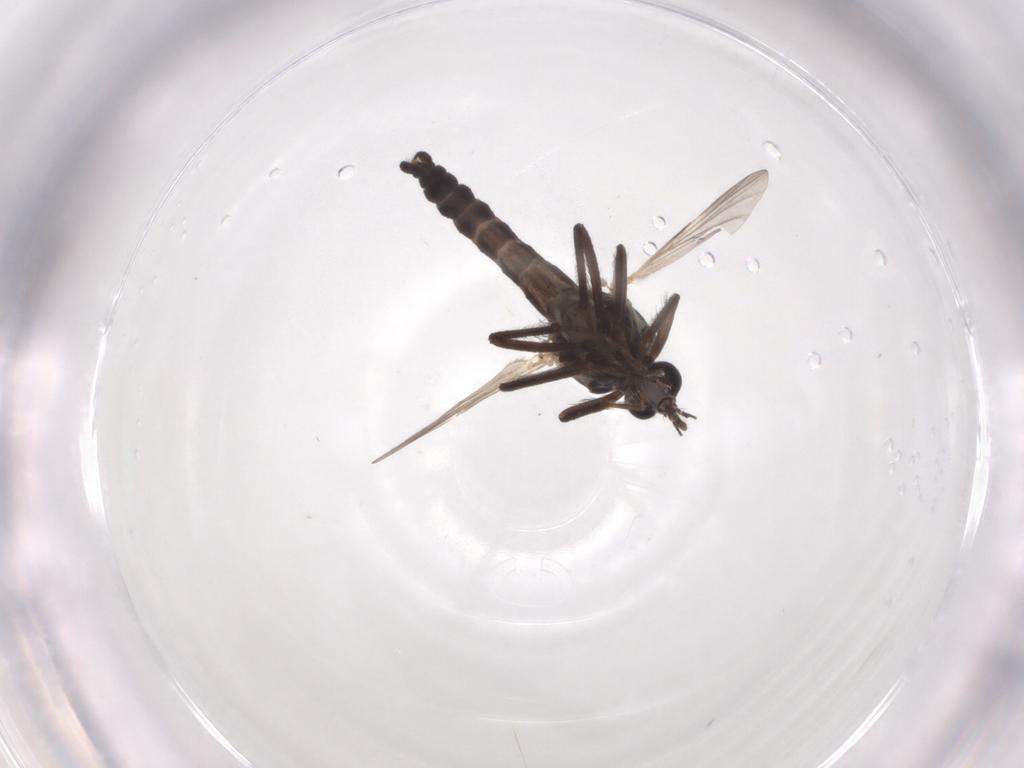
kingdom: Animalia
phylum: Arthropoda
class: Insecta
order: Diptera
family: Ceratopogonidae
